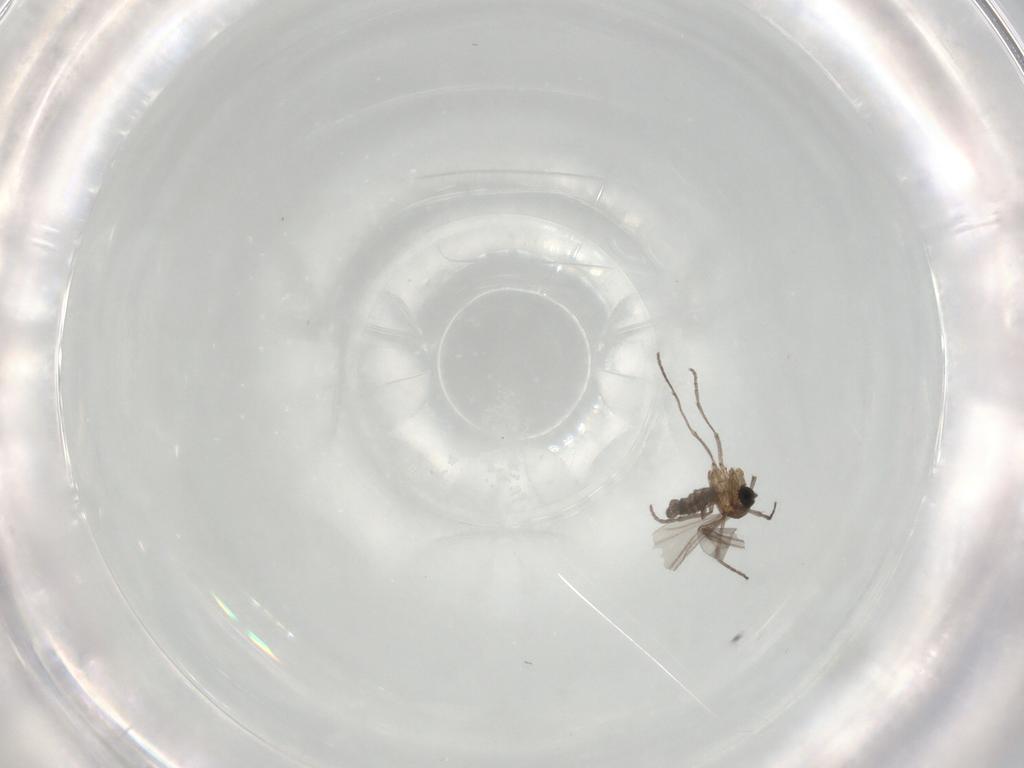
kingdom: Animalia
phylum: Arthropoda
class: Insecta
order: Diptera
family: Sciaridae
